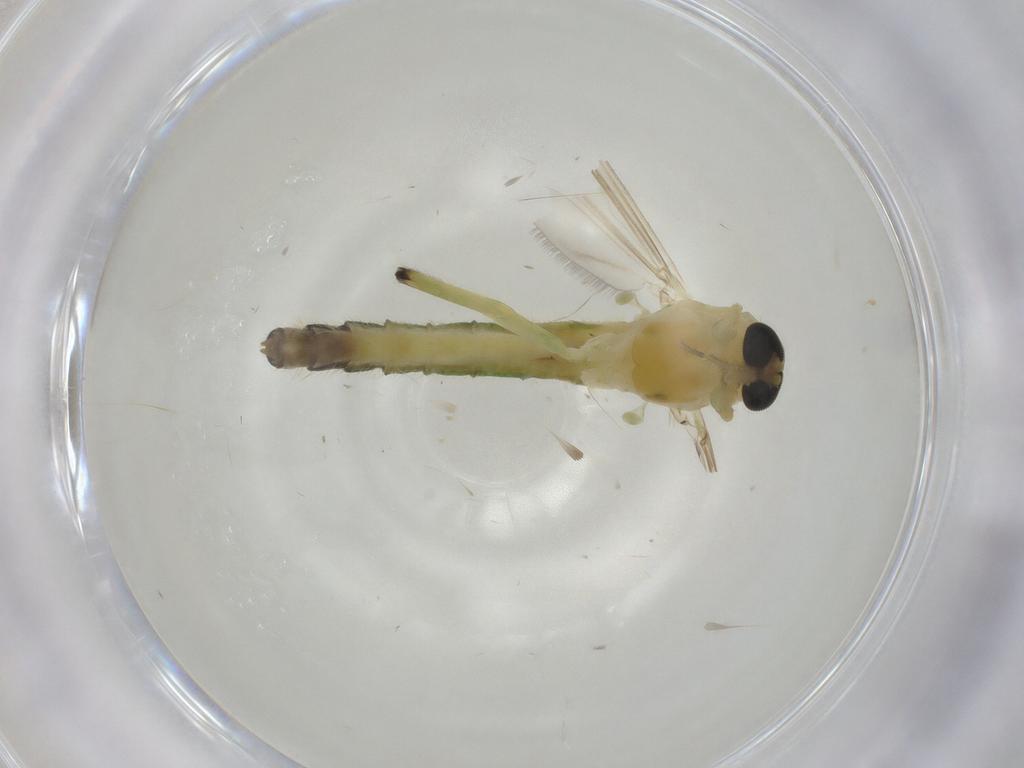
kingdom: Animalia
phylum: Arthropoda
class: Insecta
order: Diptera
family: Chironomidae
